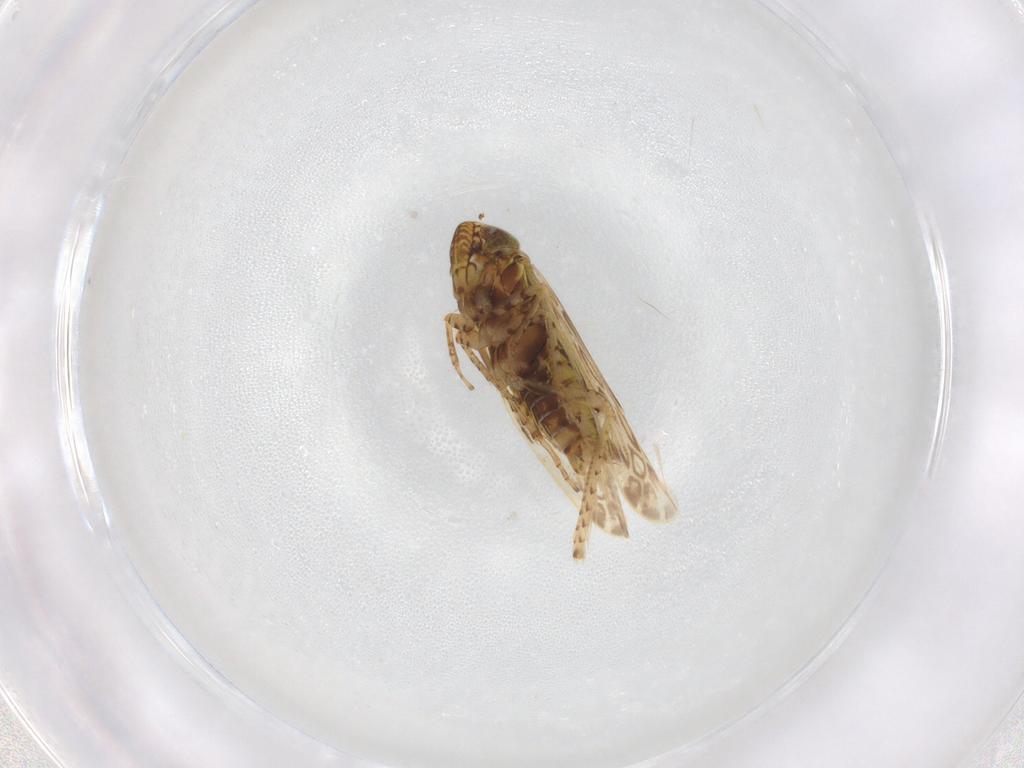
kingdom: Animalia
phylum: Arthropoda
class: Insecta
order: Hemiptera
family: Cicadellidae
